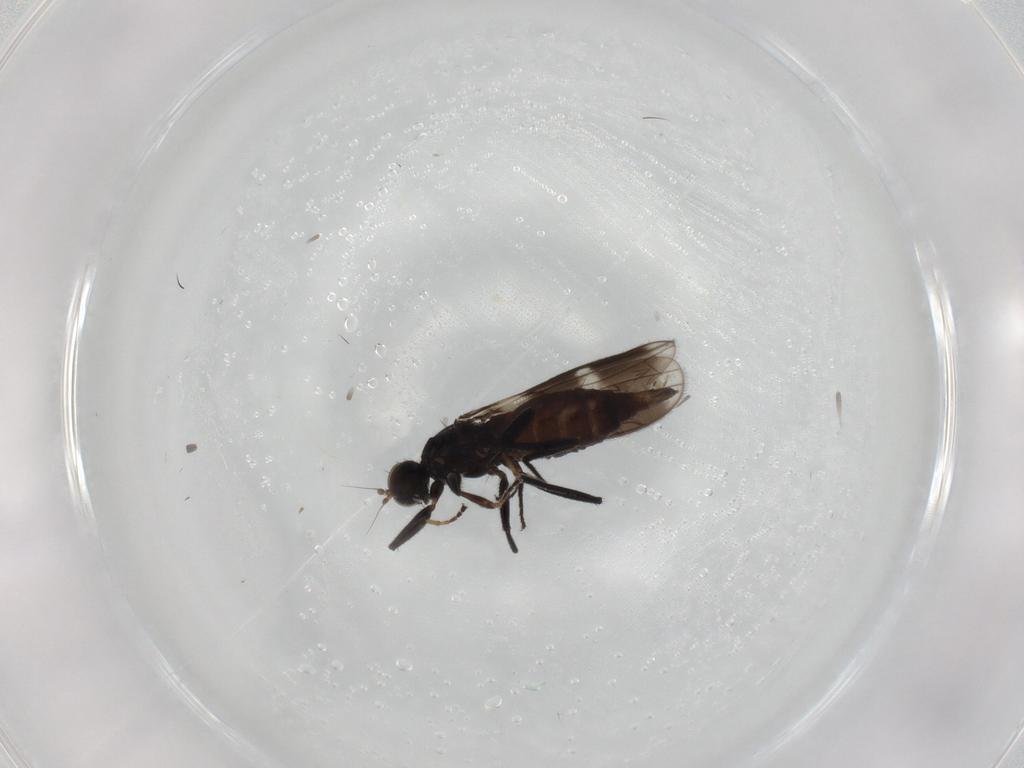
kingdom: Animalia
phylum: Arthropoda
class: Insecta
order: Diptera
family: Hybotidae
